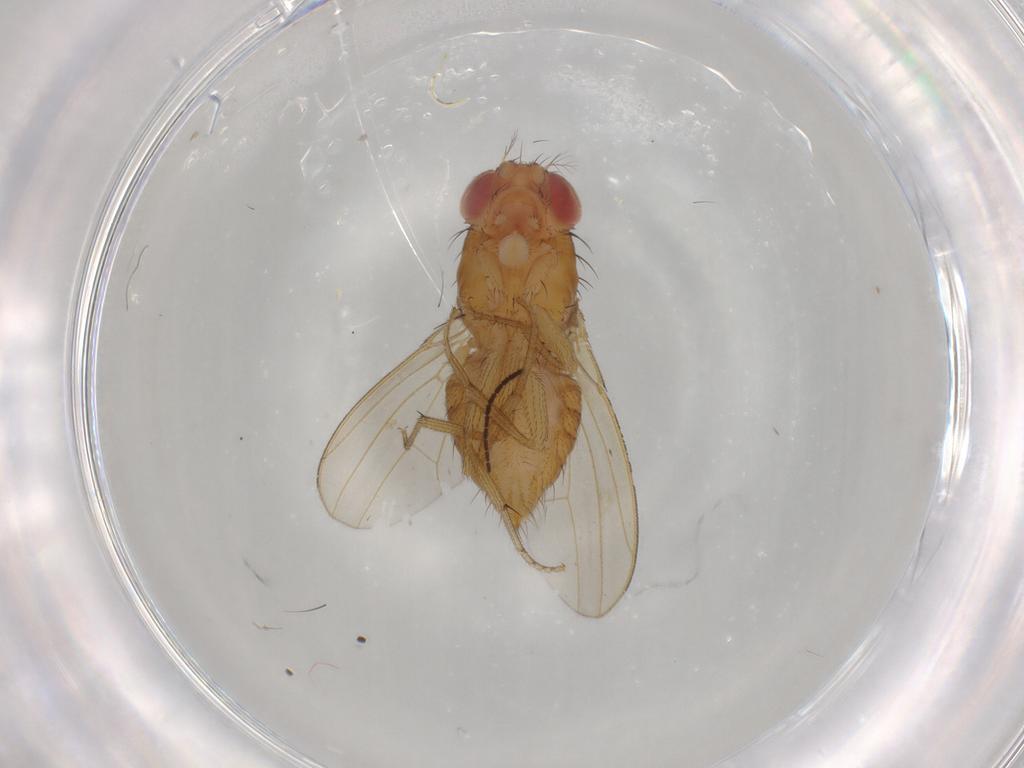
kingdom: Animalia
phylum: Arthropoda
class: Insecta
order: Diptera
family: Drosophilidae
